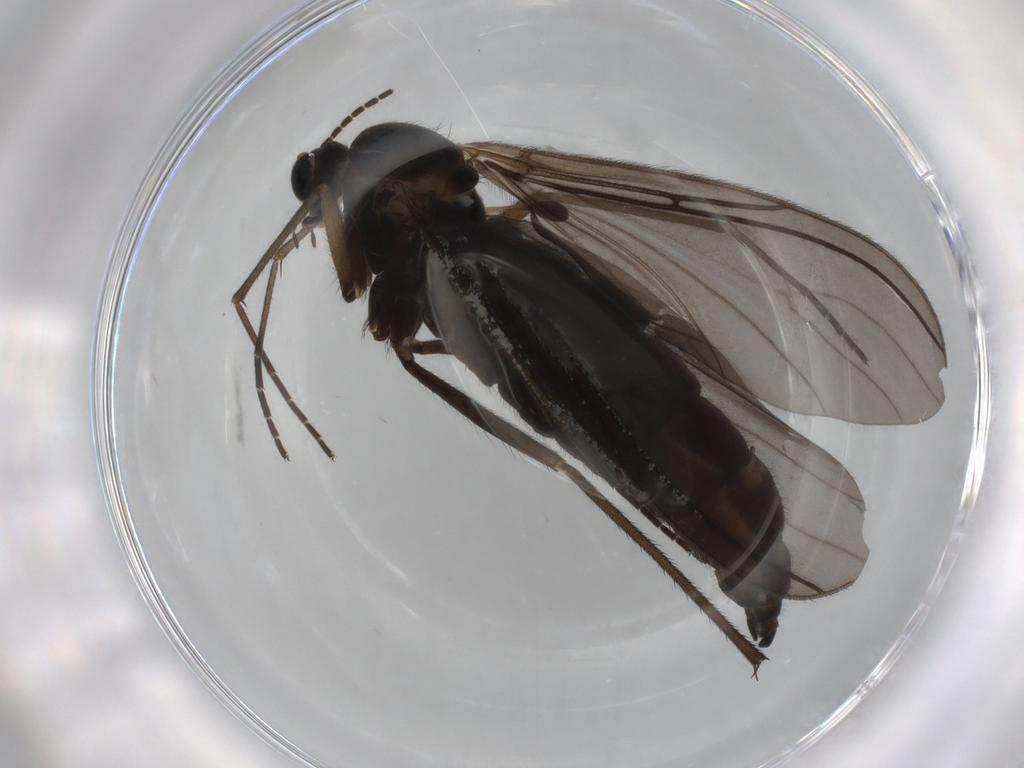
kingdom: Animalia
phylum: Arthropoda
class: Insecta
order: Diptera
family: Sciaridae
